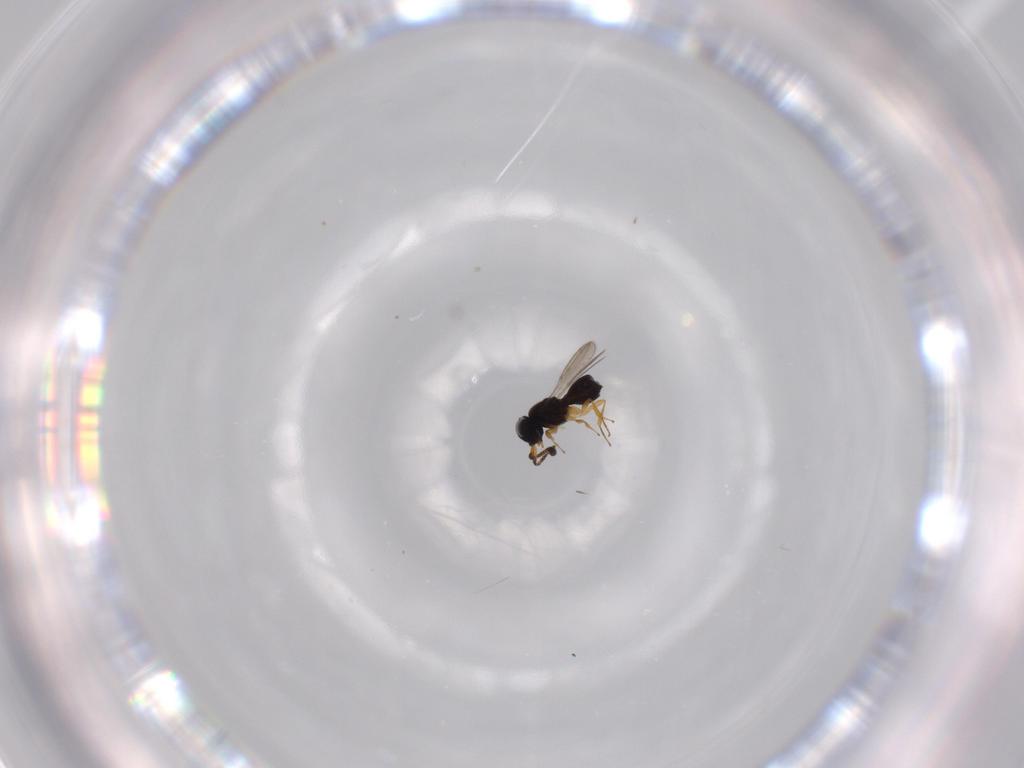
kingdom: Animalia
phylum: Arthropoda
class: Insecta
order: Hymenoptera
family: Scelionidae
